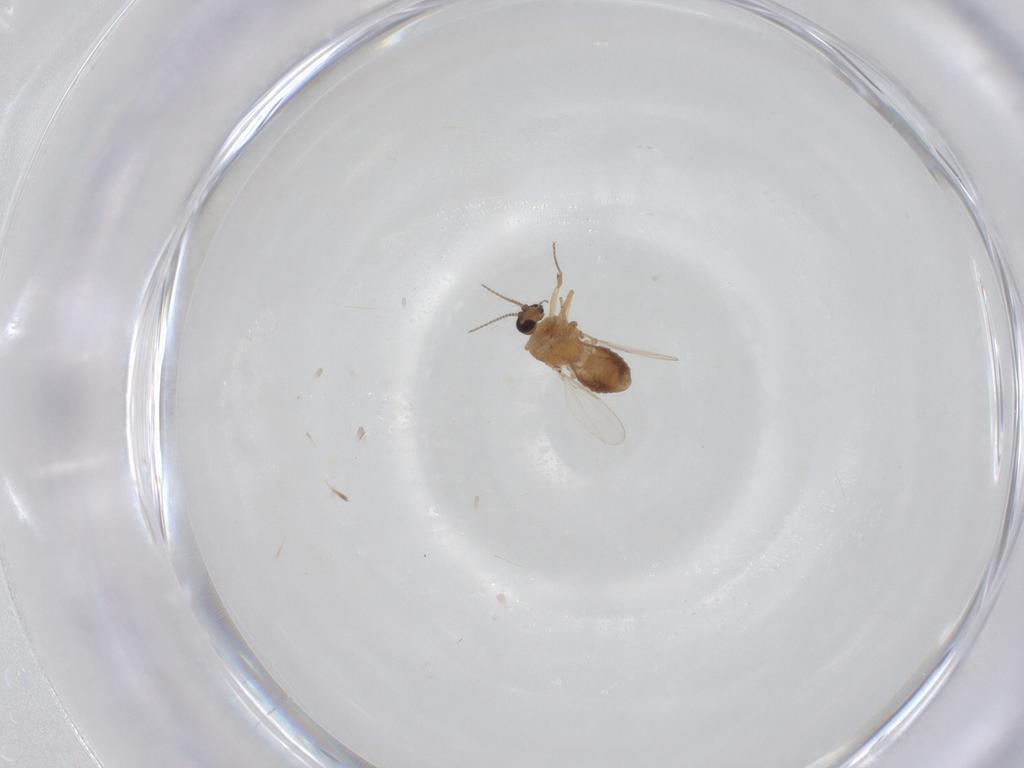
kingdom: Animalia
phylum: Arthropoda
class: Insecta
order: Diptera
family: Ceratopogonidae
